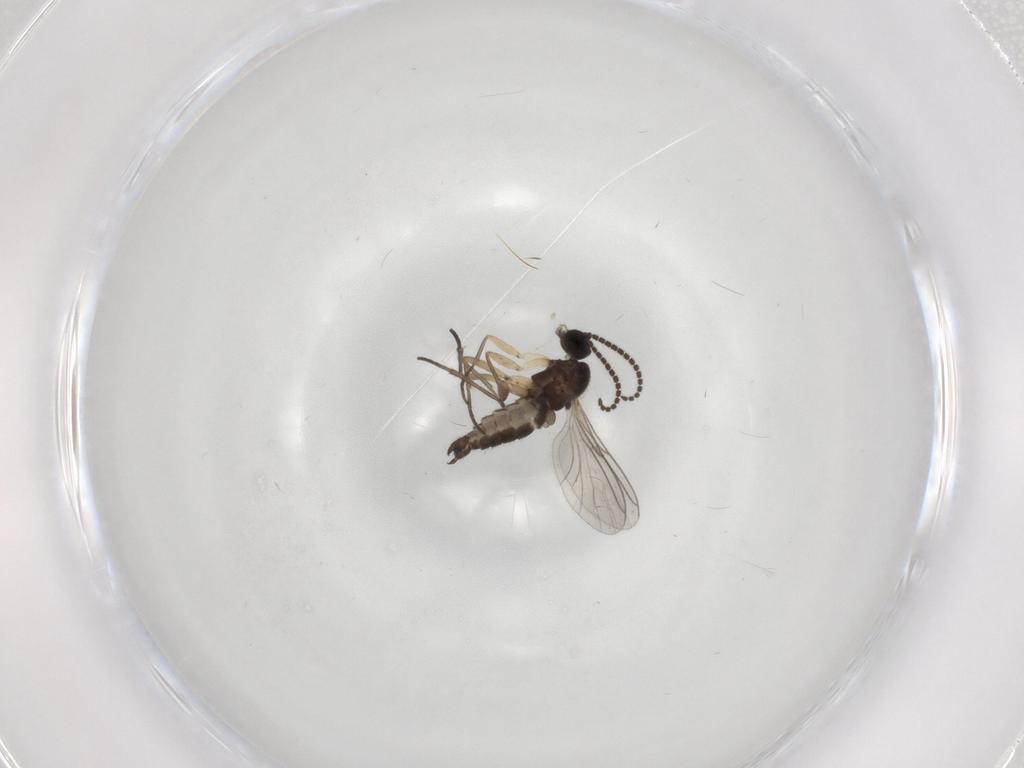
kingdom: Animalia
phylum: Arthropoda
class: Insecta
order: Diptera
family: Sciaridae
